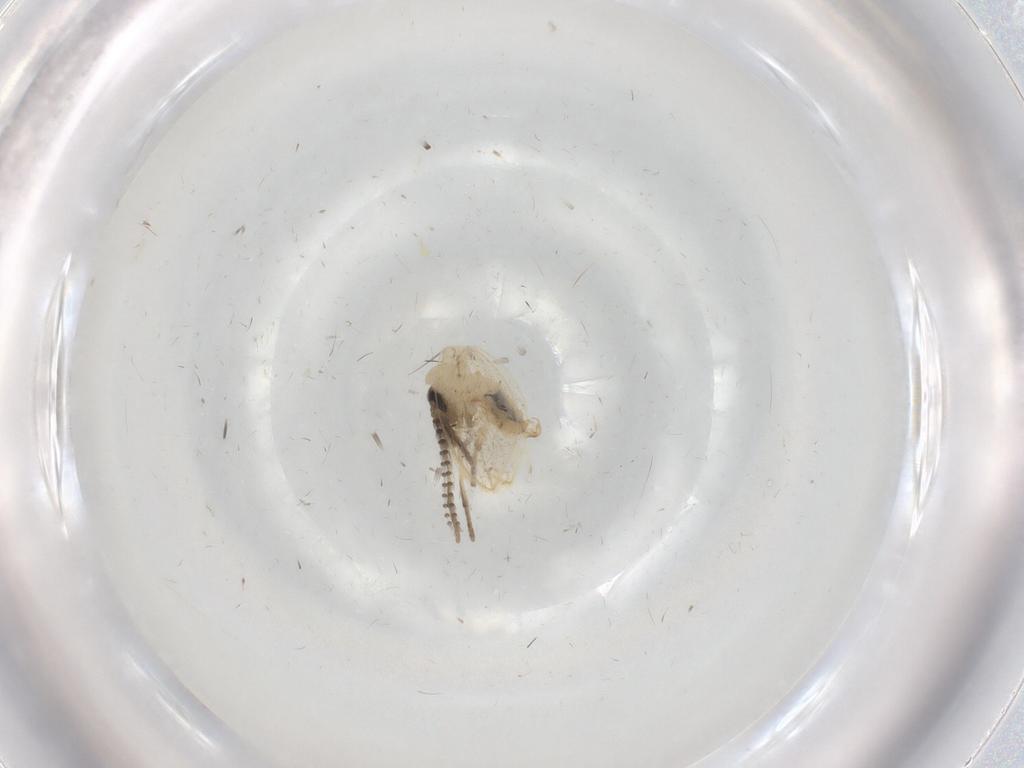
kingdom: Animalia
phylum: Arthropoda
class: Insecta
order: Diptera
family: Psychodidae
